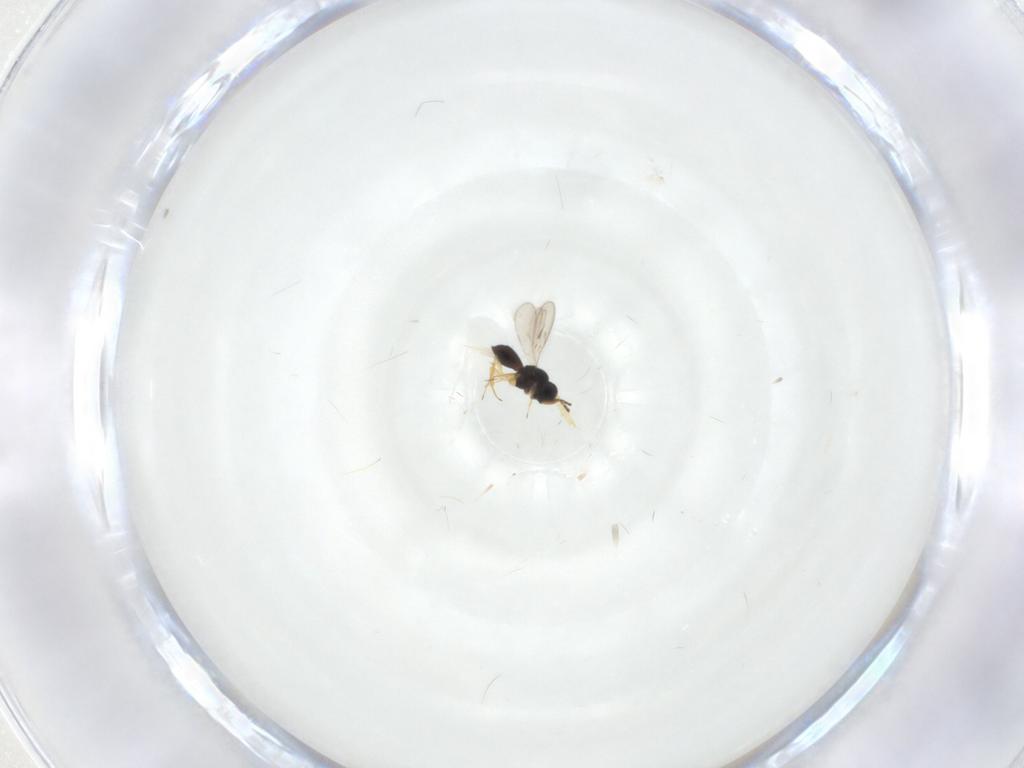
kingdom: Animalia
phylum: Arthropoda
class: Insecta
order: Hymenoptera
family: Scelionidae
